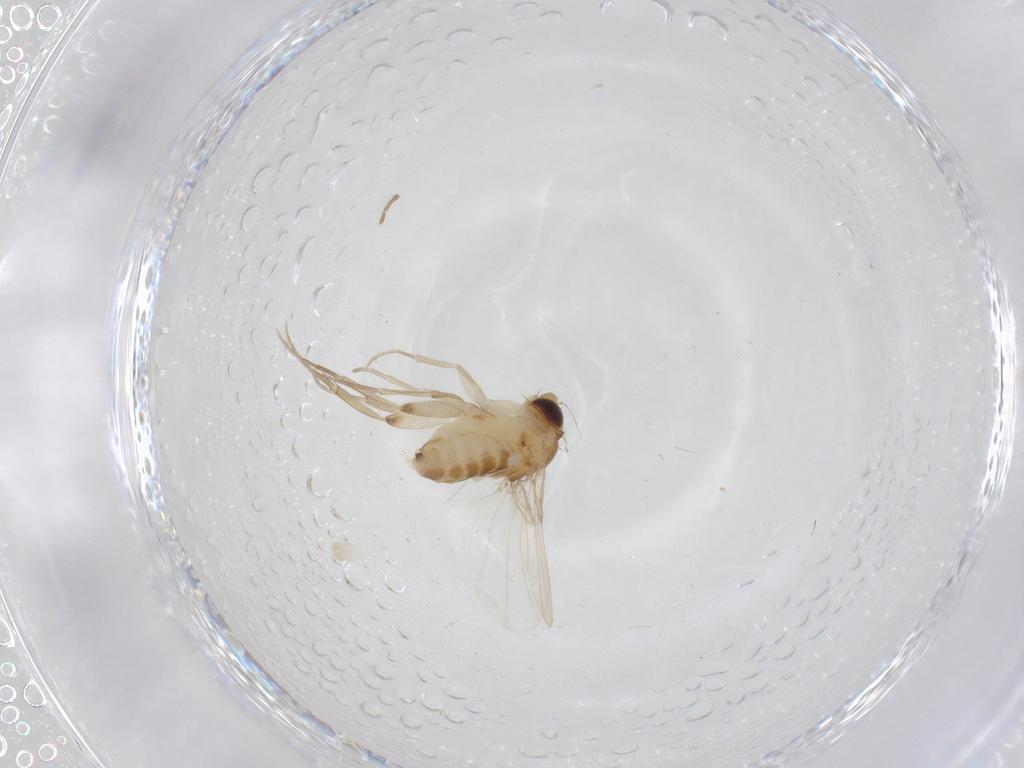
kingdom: Animalia
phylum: Arthropoda
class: Insecta
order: Diptera
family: Phoridae
